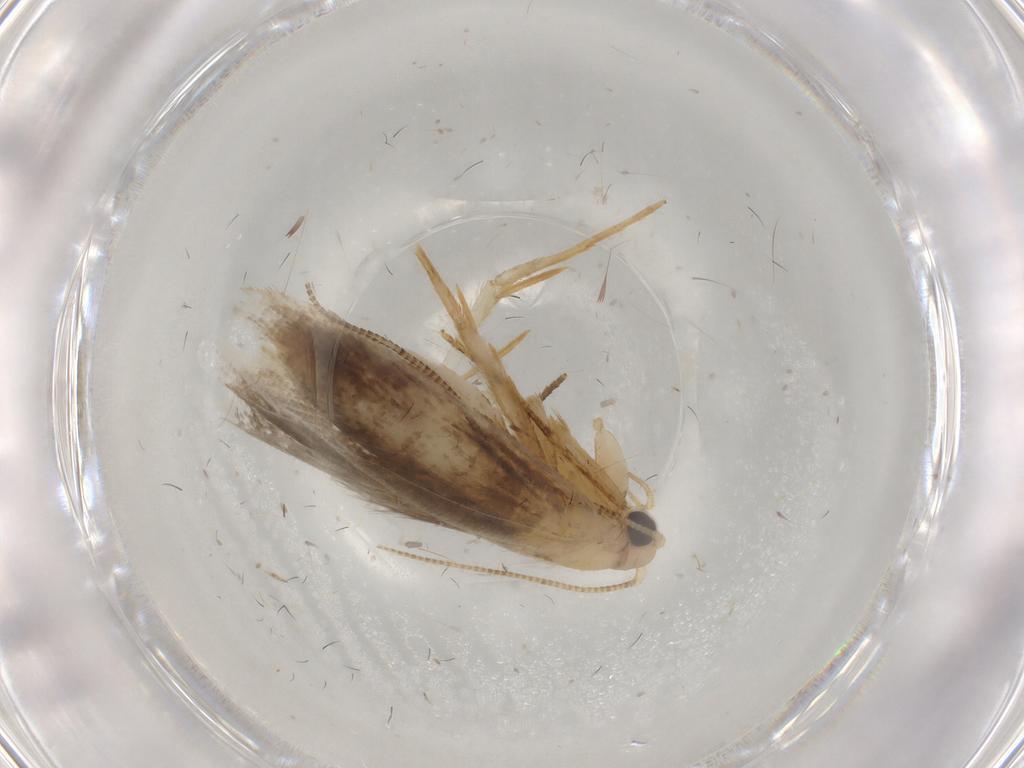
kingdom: Animalia
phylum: Arthropoda
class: Insecta
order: Lepidoptera
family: Tineidae
